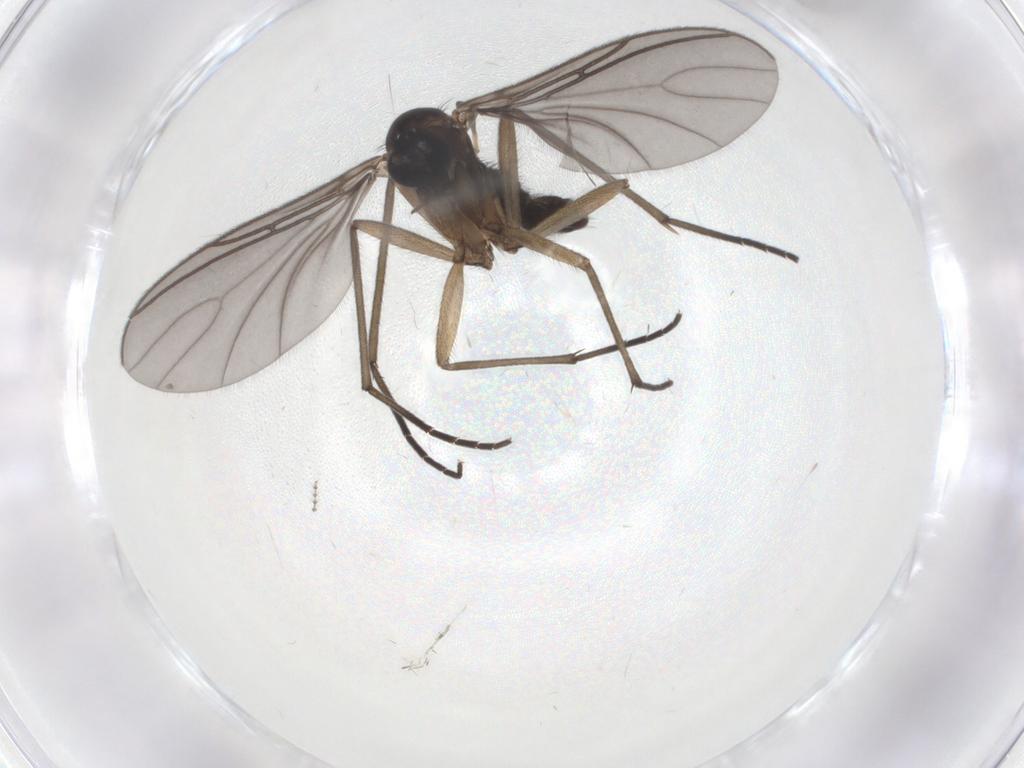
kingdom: Animalia
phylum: Arthropoda
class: Insecta
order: Diptera
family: Sciaridae
